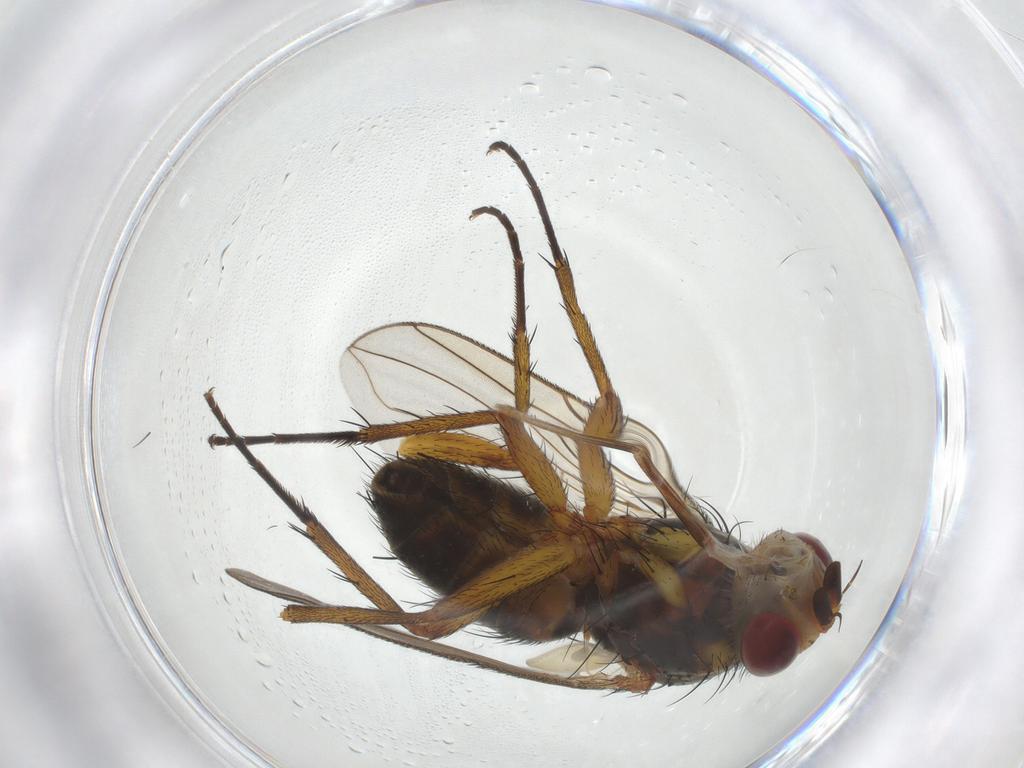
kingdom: Animalia
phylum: Arthropoda
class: Insecta
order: Diptera
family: Tachinidae
